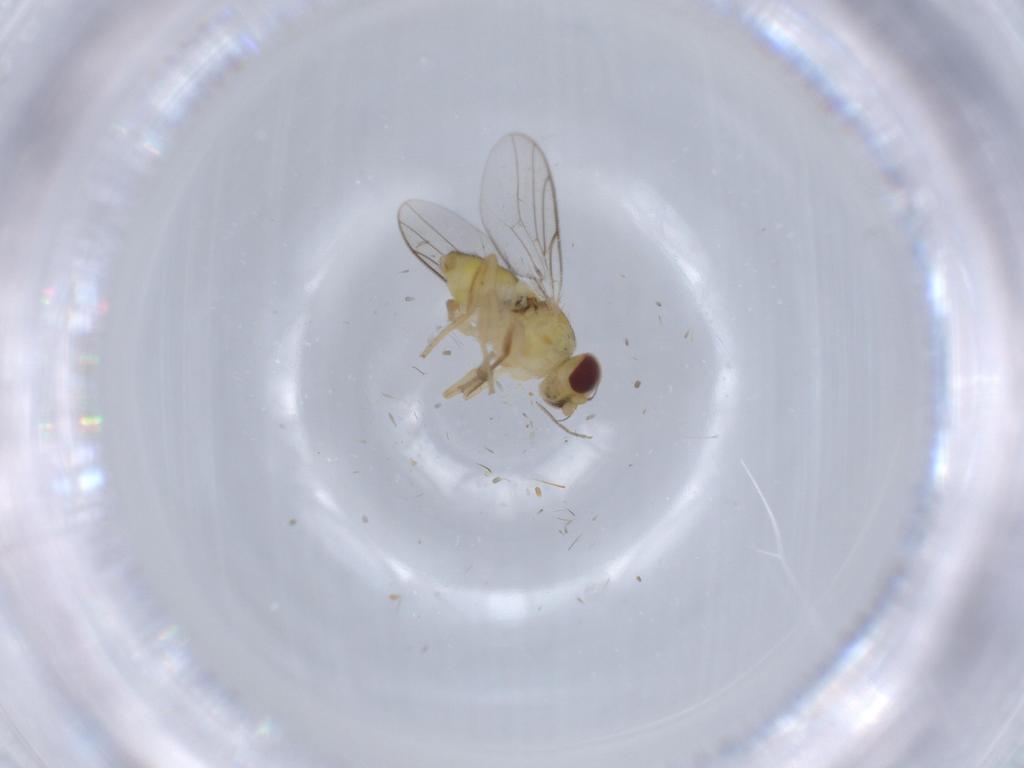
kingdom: Animalia
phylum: Arthropoda
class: Insecta
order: Diptera
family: Chloropidae
